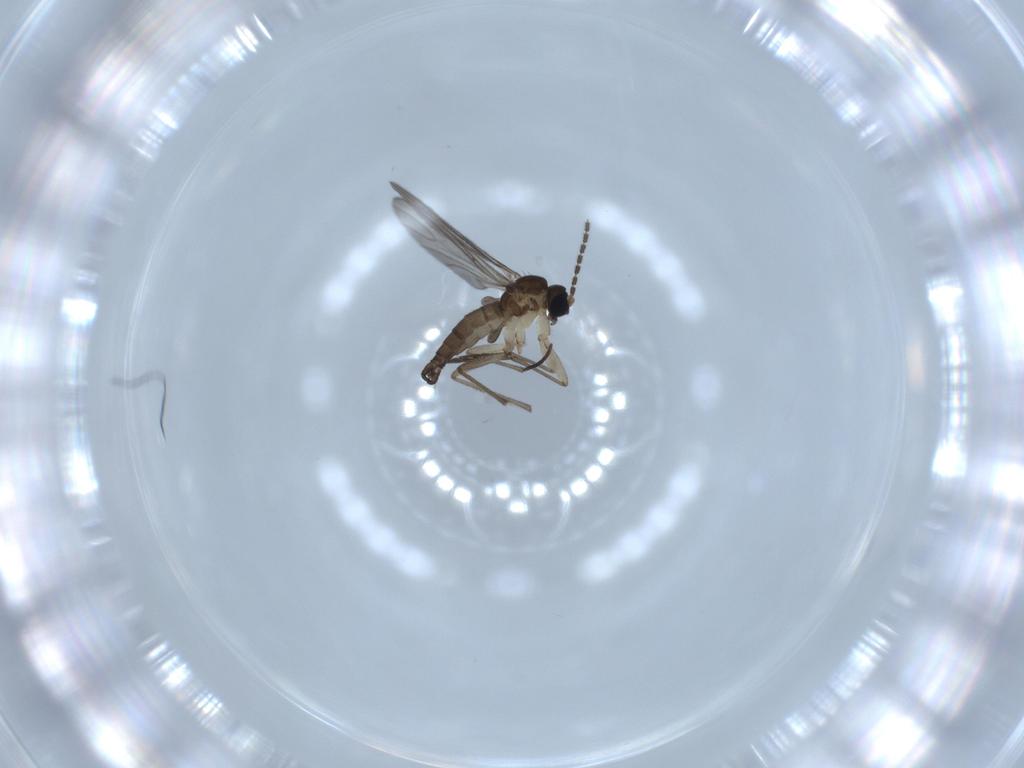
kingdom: Animalia
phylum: Arthropoda
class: Insecta
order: Diptera
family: Sciaridae
